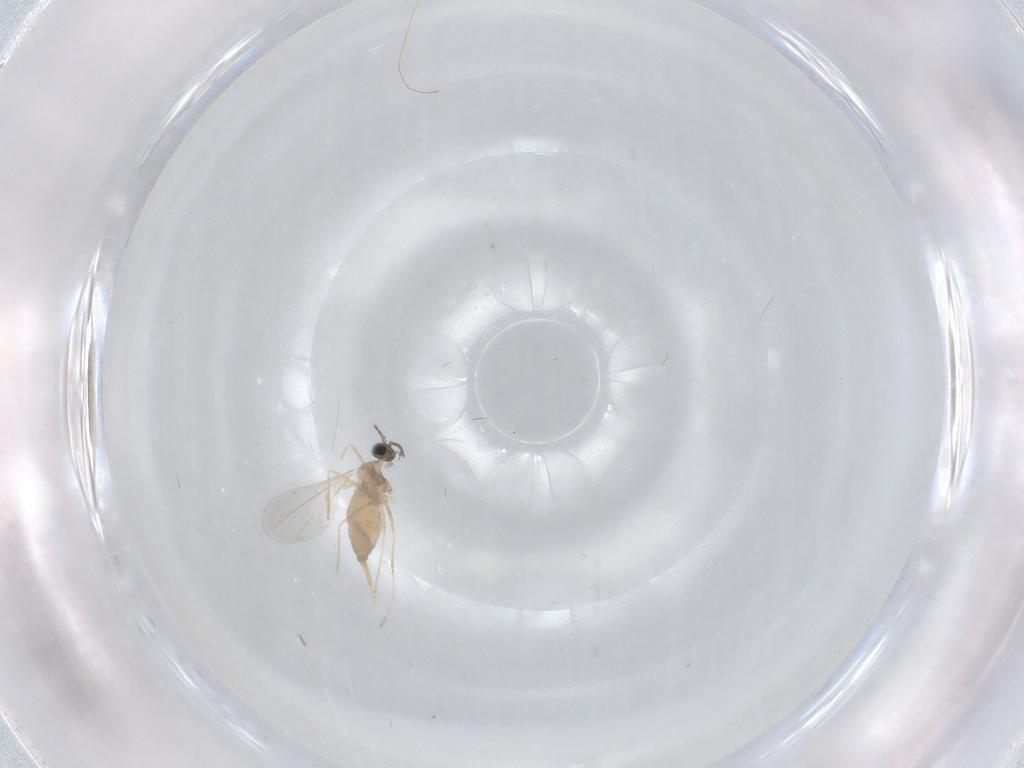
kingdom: Animalia
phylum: Arthropoda
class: Insecta
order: Diptera
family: Cecidomyiidae
